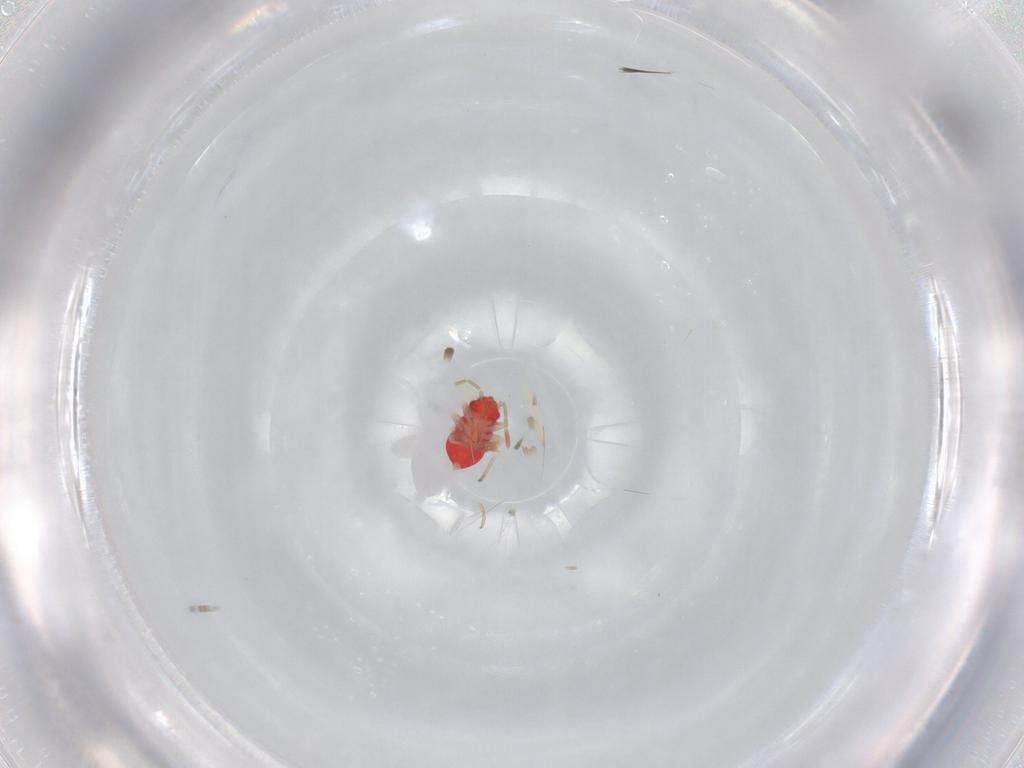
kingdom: Animalia
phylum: Arthropoda
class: Insecta
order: Hemiptera
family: Miridae
